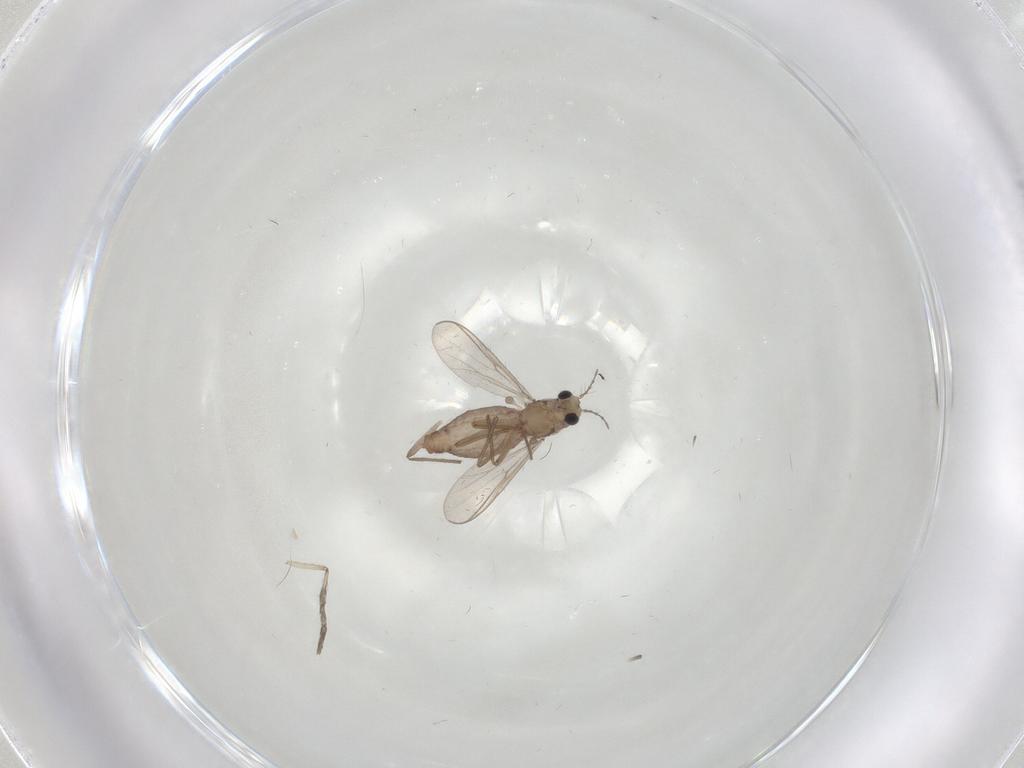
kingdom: Animalia
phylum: Arthropoda
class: Insecta
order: Diptera
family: Chironomidae
